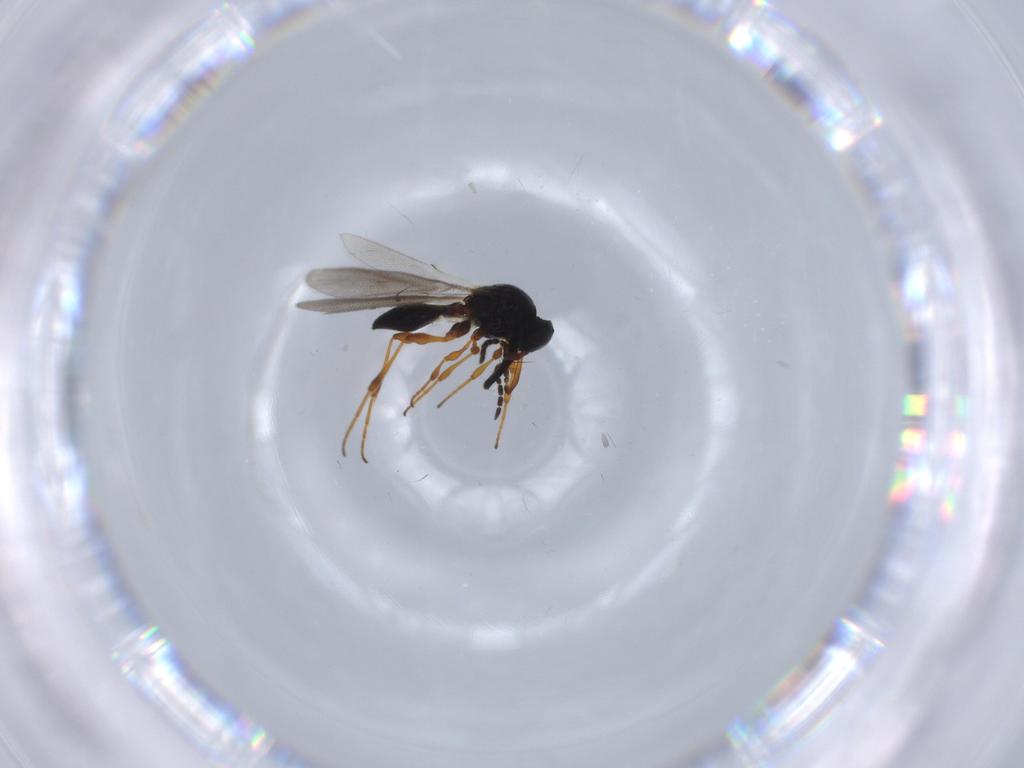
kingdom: Animalia
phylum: Arthropoda
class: Insecta
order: Hymenoptera
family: Platygastridae
